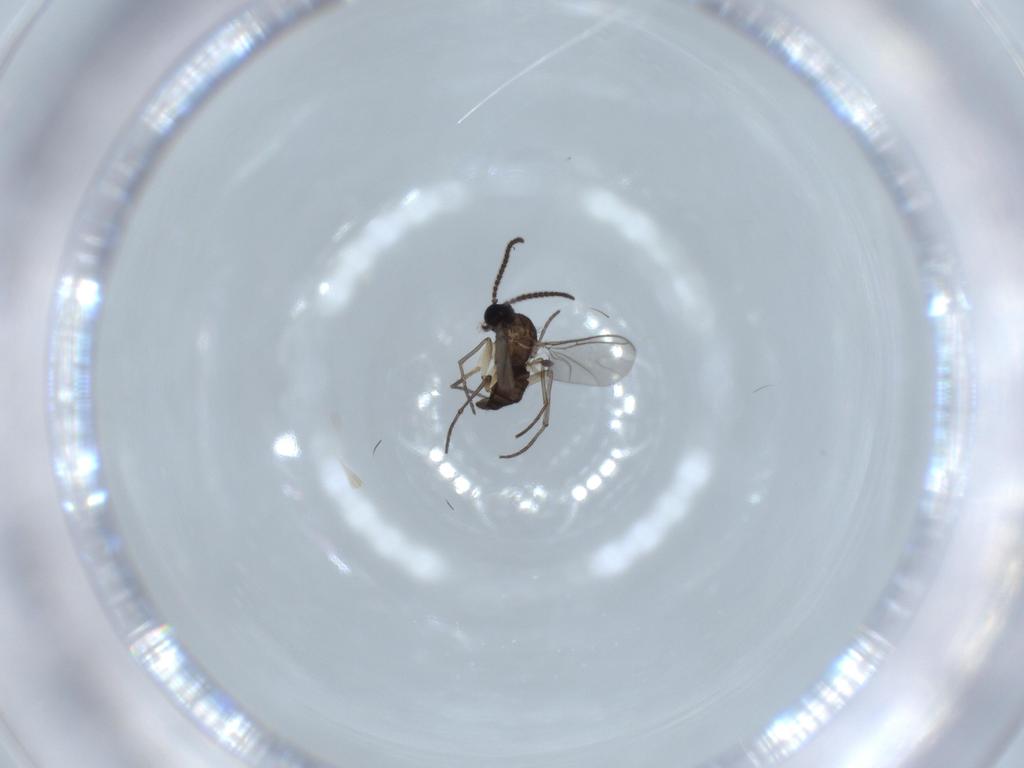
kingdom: Animalia
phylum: Arthropoda
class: Insecta
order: Diptera
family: Sciaridae
